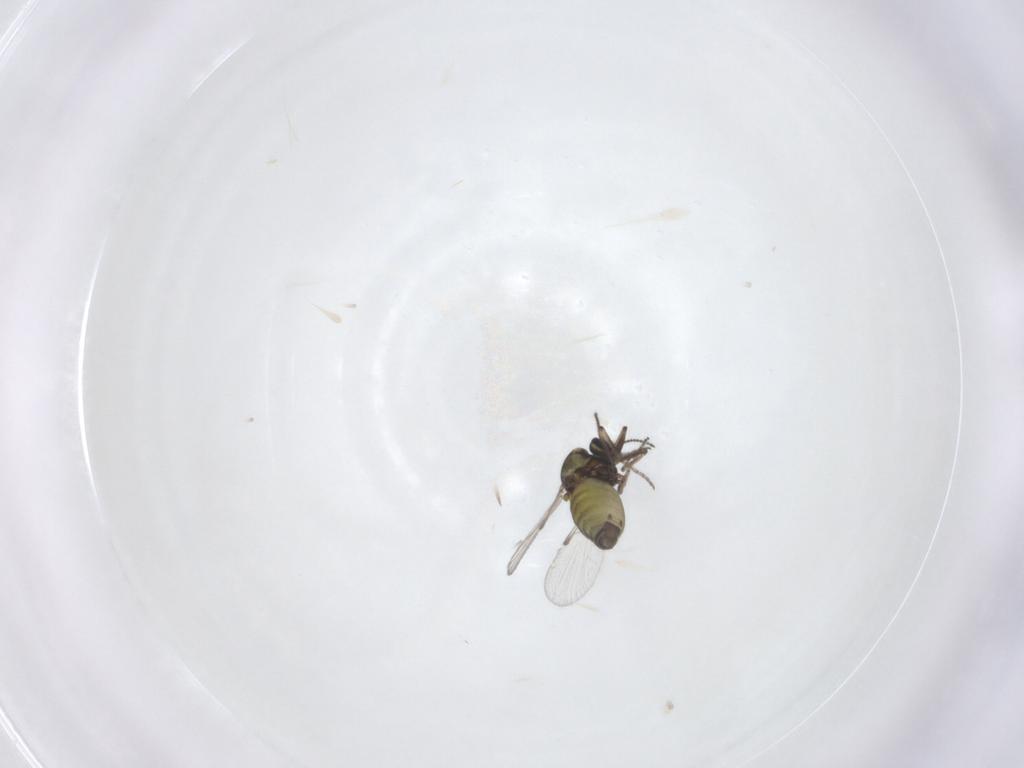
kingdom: Animalia
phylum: Arthropoda
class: Insecta
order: Diptera
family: Ceratopogonidae
